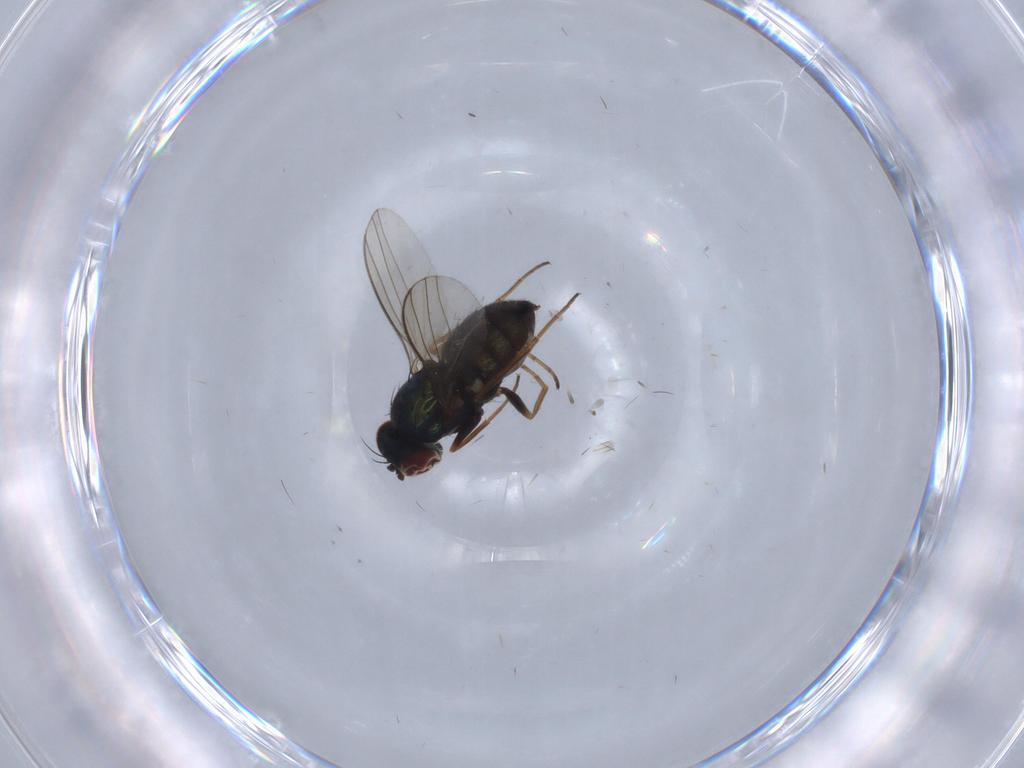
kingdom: Animalia
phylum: Arthropoda
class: Insecta
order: Diptera
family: Dolichopodidae
